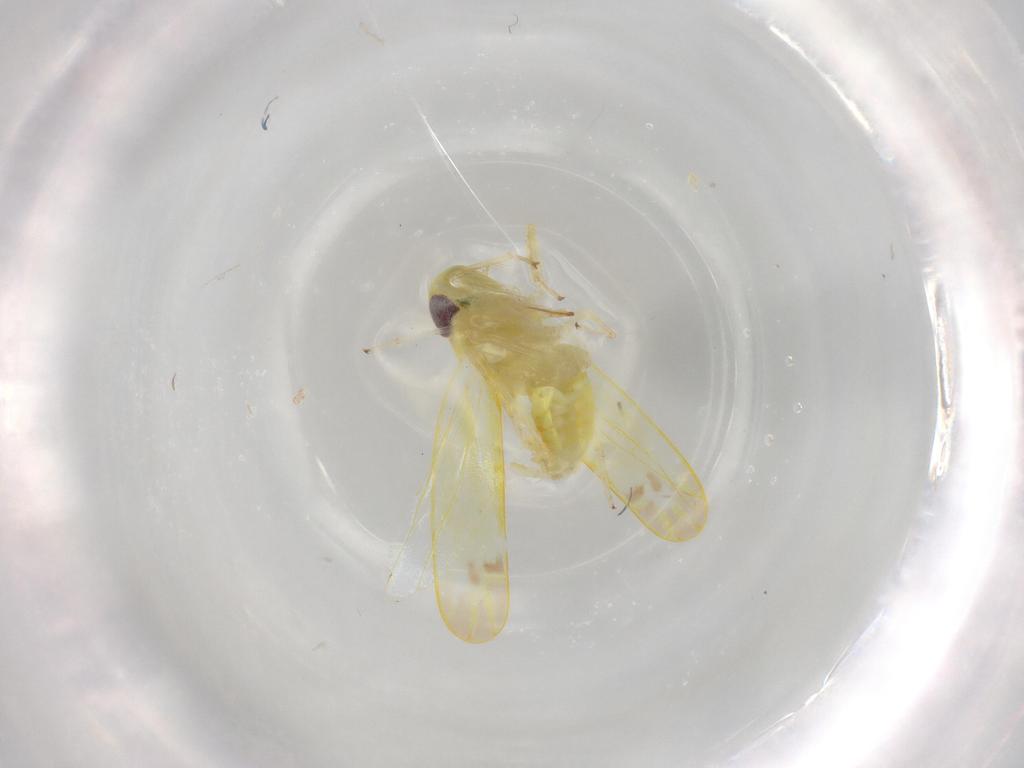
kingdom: Animalia
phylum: Arthropoda
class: Insecta
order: Hemiptera
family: Cicadellidae
